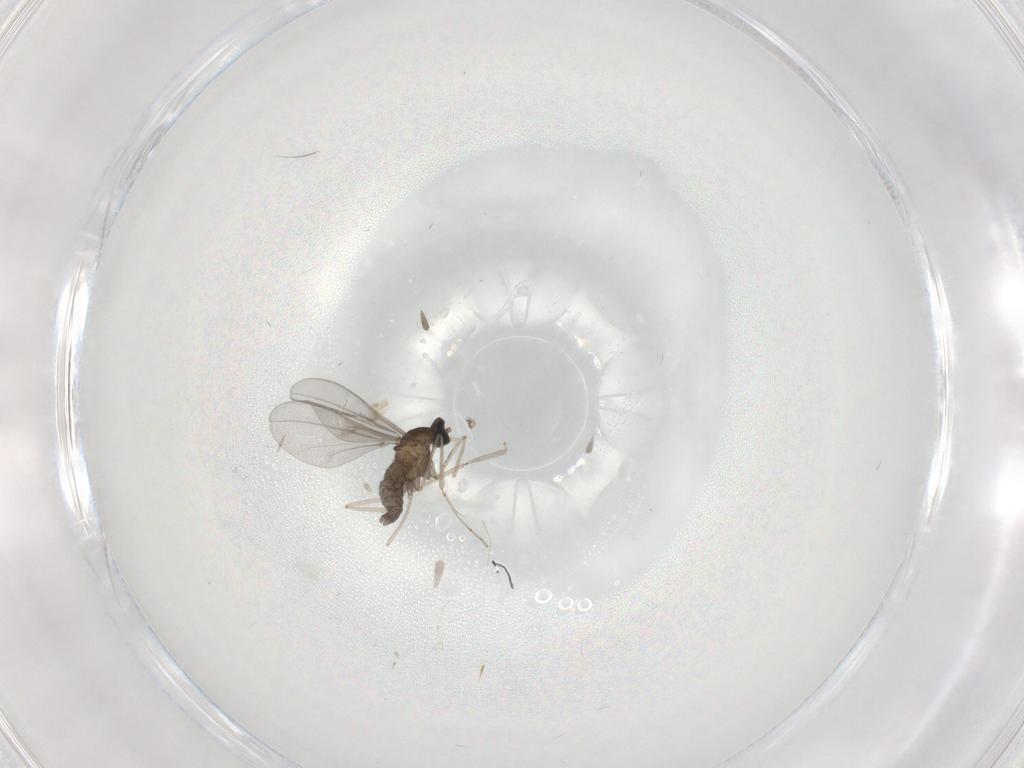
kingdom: Animalia
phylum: Arthropoda
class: Insecta
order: Diptera
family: Cecidomyiidae
